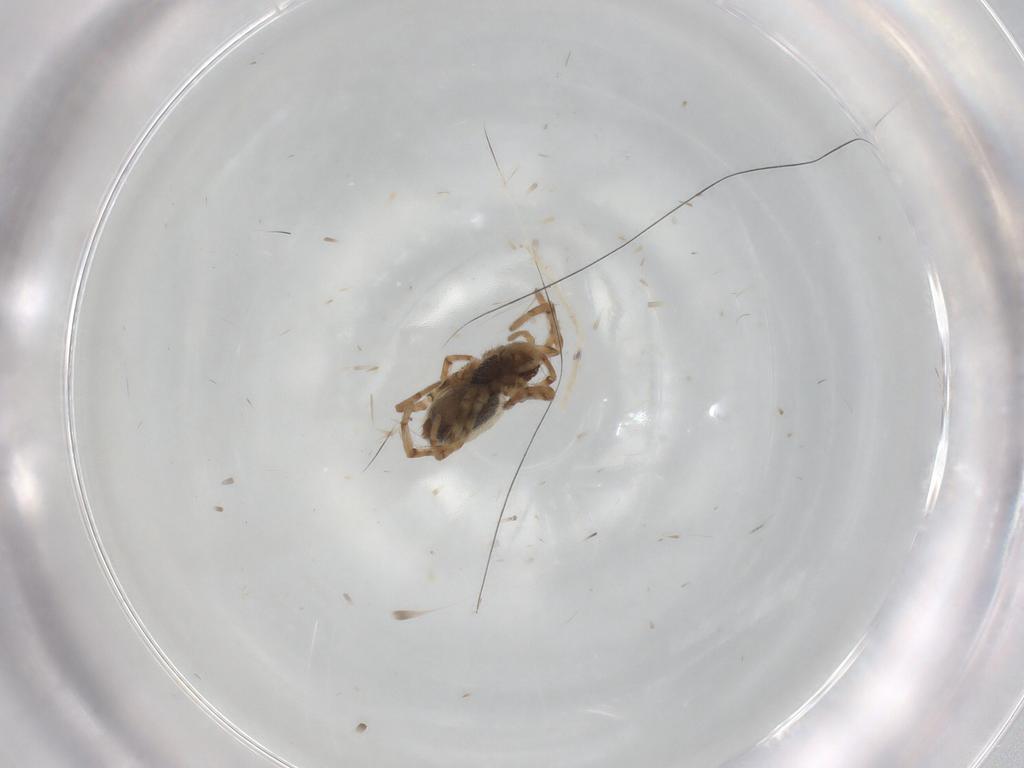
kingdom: Animalia
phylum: Arthropoda
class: Arachnida
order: Araneae
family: Dictynidae
